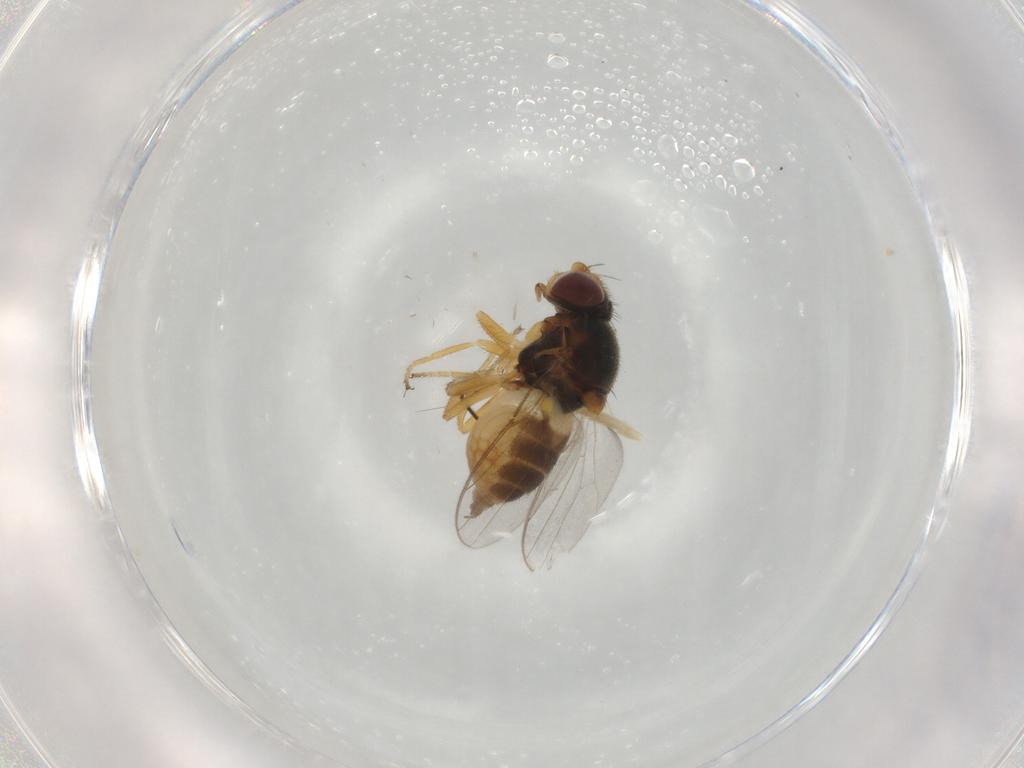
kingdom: Animalia
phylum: Arthropoda
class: Insecta
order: Diptera
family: Chloropidae
